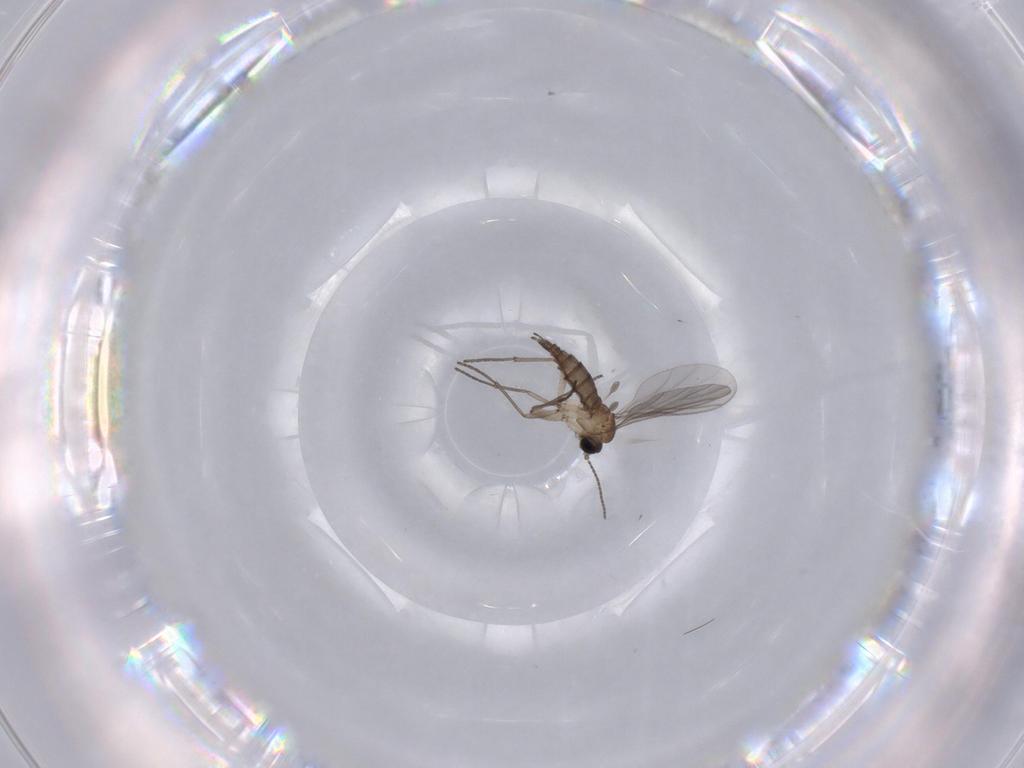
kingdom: Animalia
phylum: Arthropoda
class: Insecta
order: Diptera
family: Sciaridae
